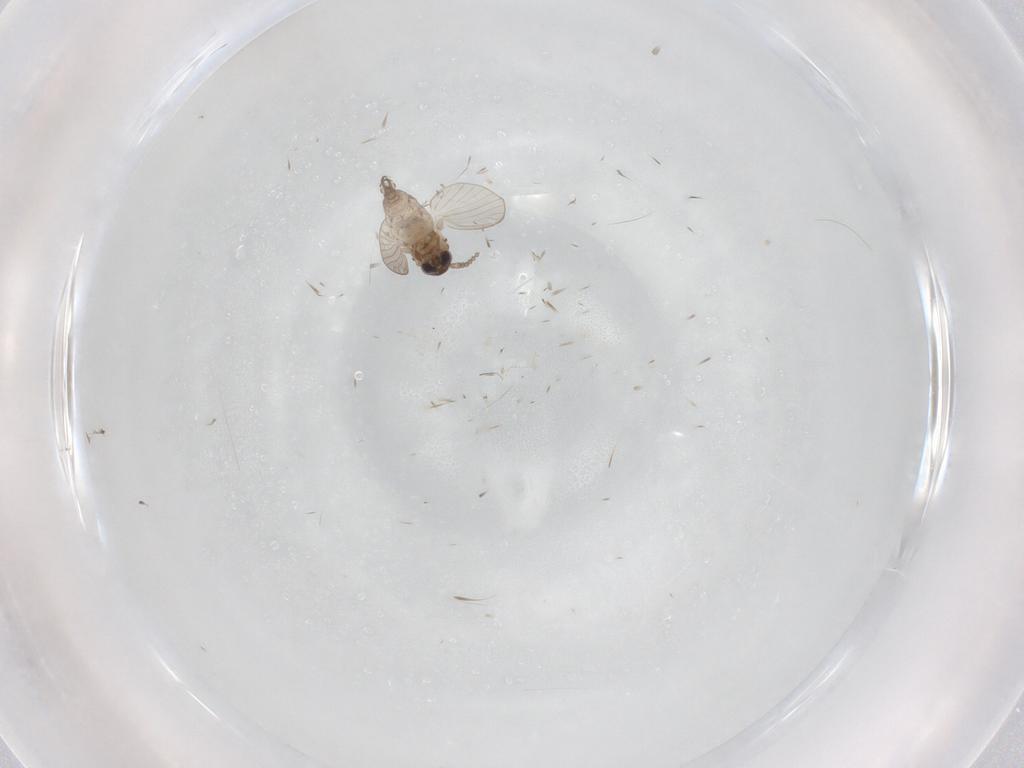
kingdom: Animalia
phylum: Arthropoda
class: Insecta
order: Diptera
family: Psychodidae
